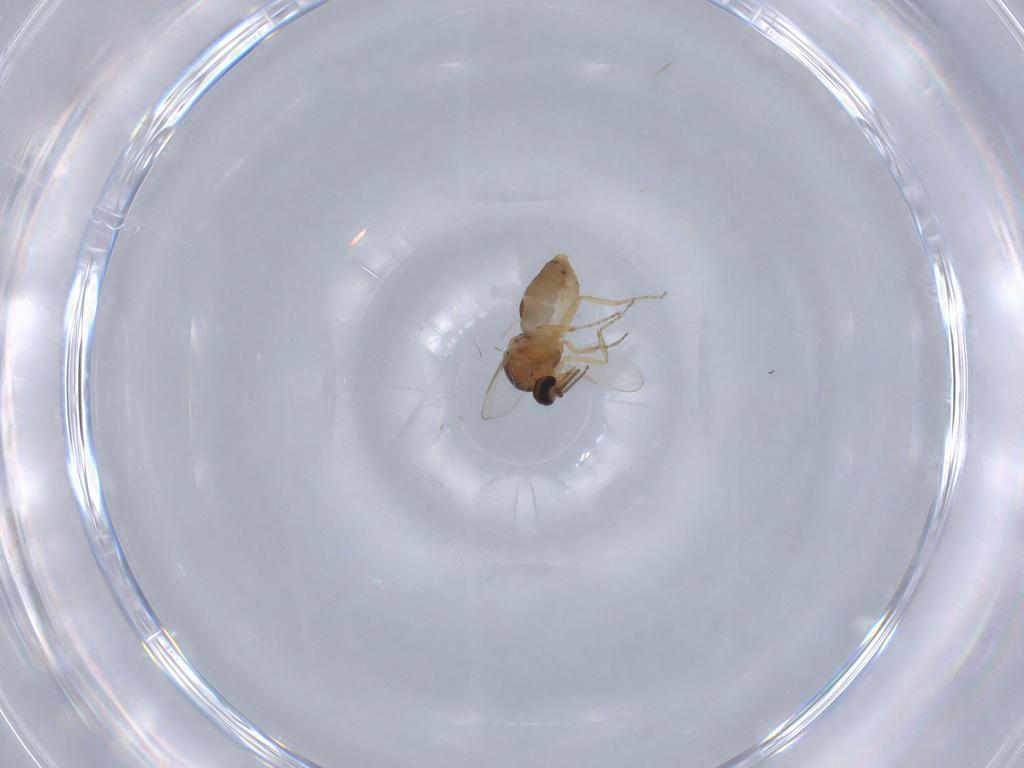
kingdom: Animalia
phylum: Arthropoda
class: Insecta
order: Diptera
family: Ceratopogonidae
